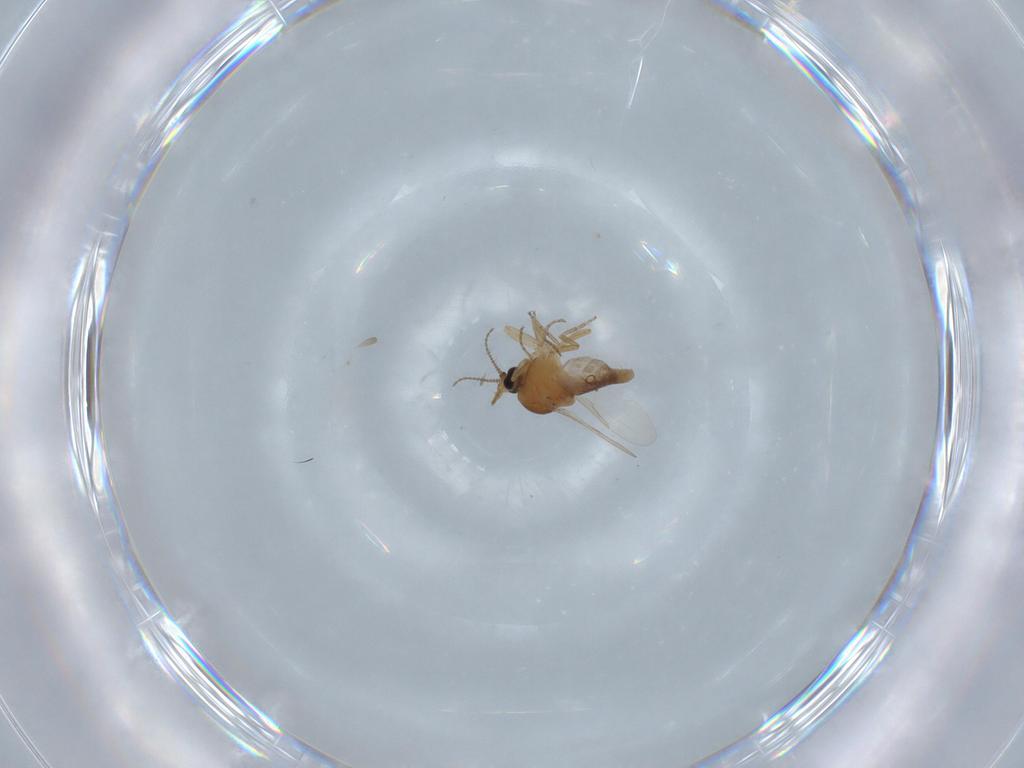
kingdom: Animalia
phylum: Arthropoda
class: Insecta
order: Diptera
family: Ceratopogonidae
